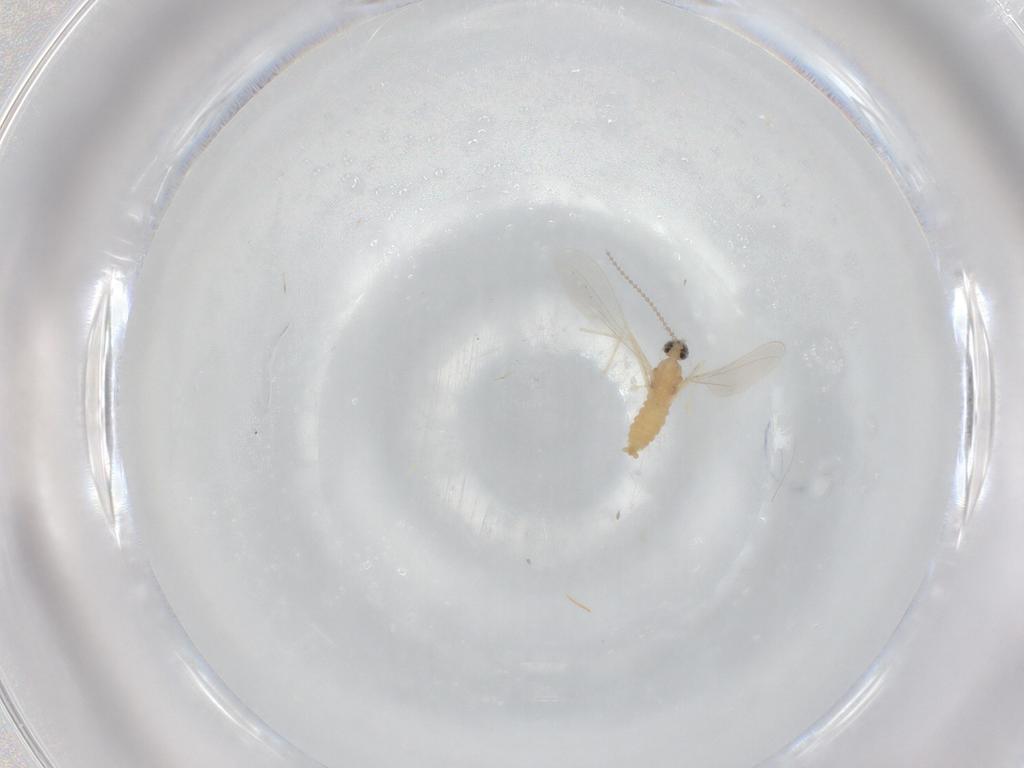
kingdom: Animalia
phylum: Arthropoda
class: Insecta
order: Diptera
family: Phoridae
